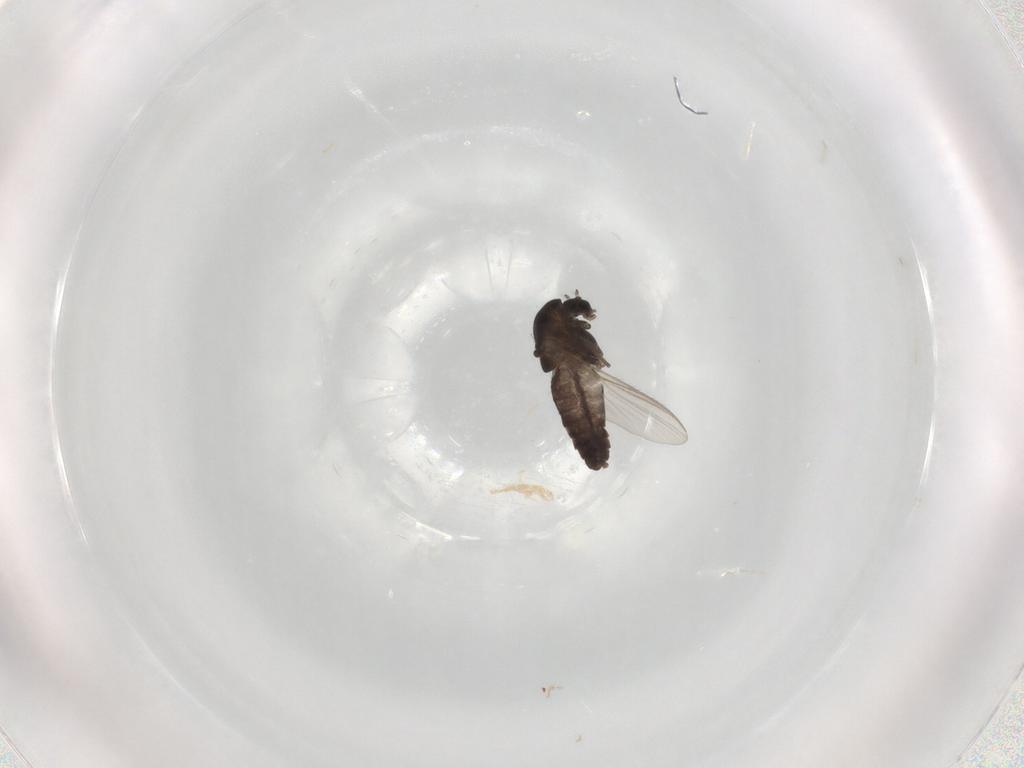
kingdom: Animalia
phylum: Arthropoda
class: Insecta
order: Diptera
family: Chironomidae
